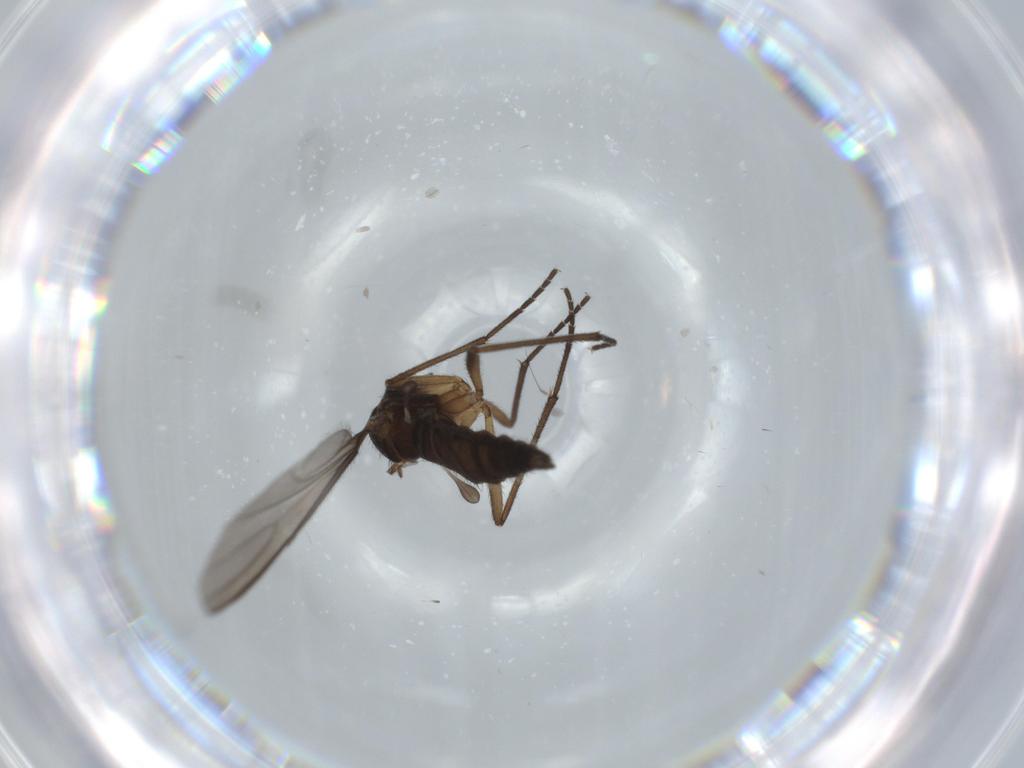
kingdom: Animalia
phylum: Arthropoda
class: Insecta
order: Diptera
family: Sciaridae
